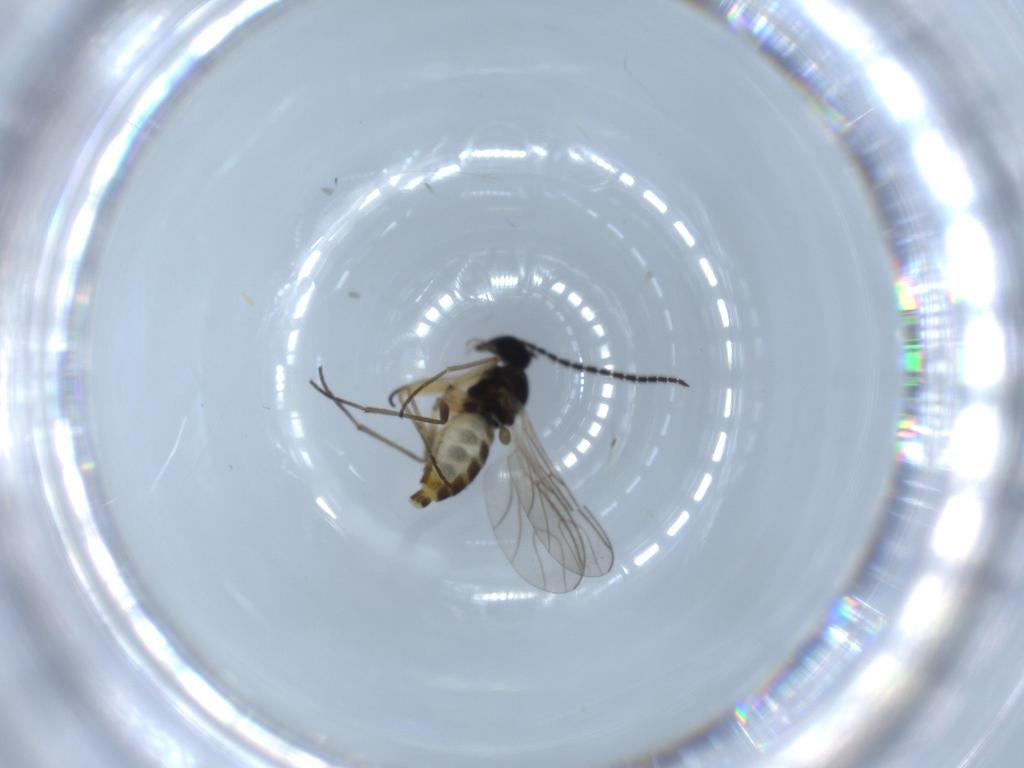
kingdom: Animalia
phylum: Arthropoda
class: Insecta
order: Diptera
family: Sciaridae
